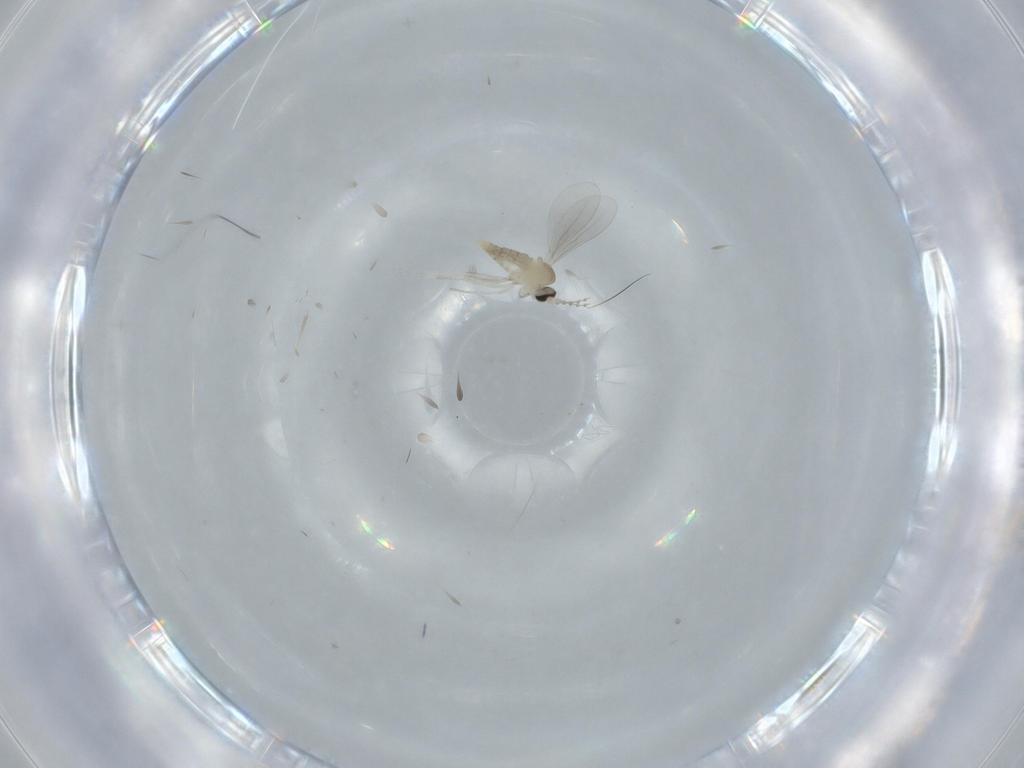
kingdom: Animalia
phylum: Arthropoda
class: Insecta
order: Diptera
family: Cecidomyiidae
